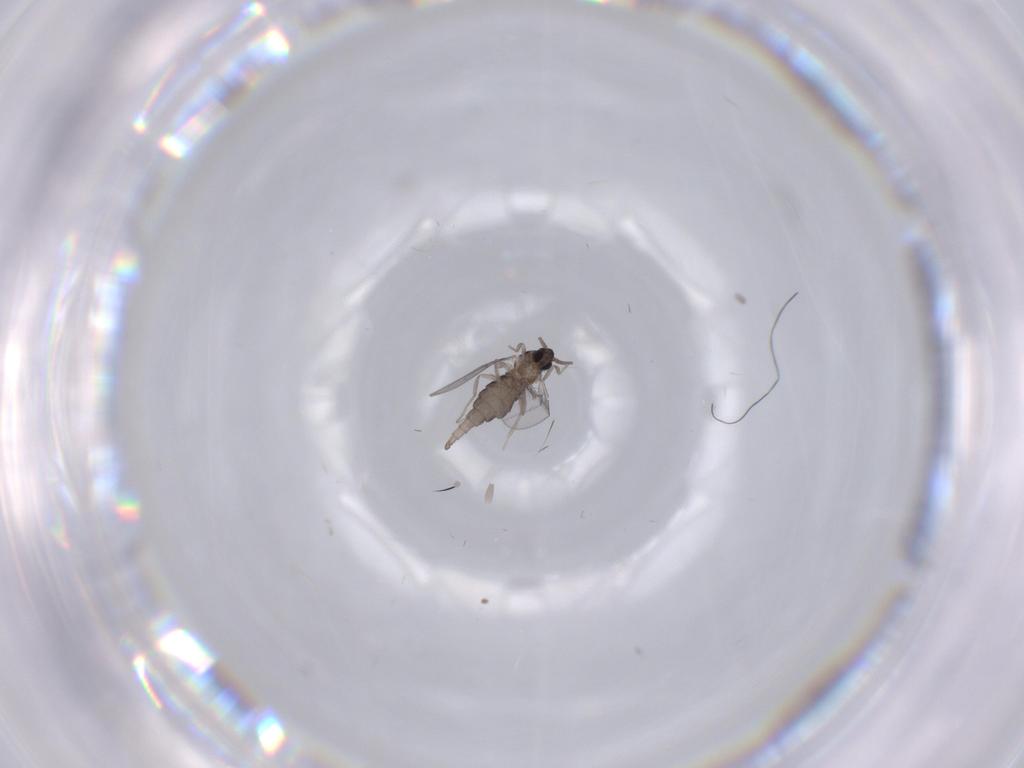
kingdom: Animalia
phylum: Arthropoda
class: Insecta
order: Diptera
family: Cecidomyiidae
